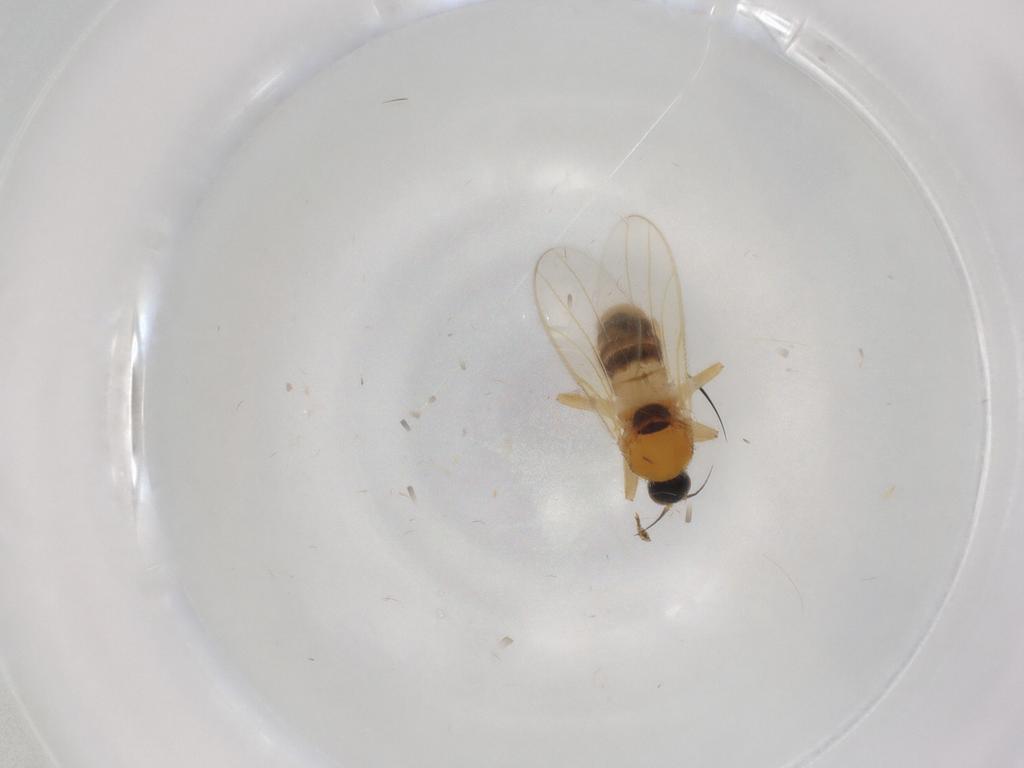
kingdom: Animalia
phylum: Arthropoda
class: Insecta
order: Diptera
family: Hybotidae
